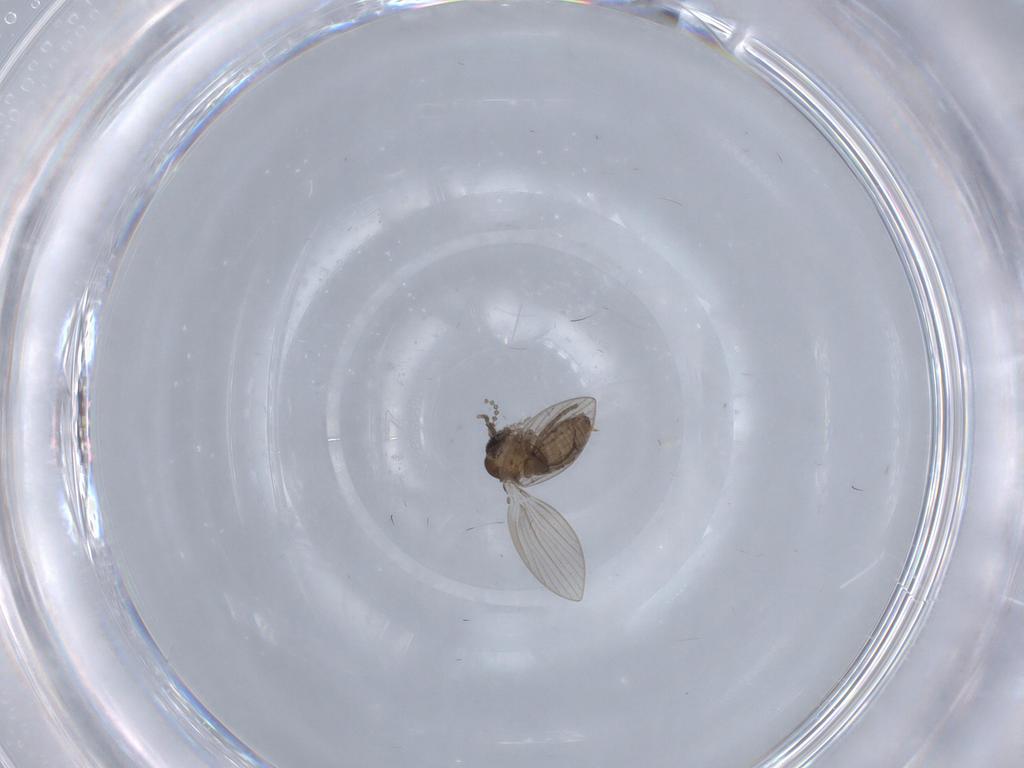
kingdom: Animalia
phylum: Arthropoda
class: Insecta
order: Diptera
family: Psychodidae
